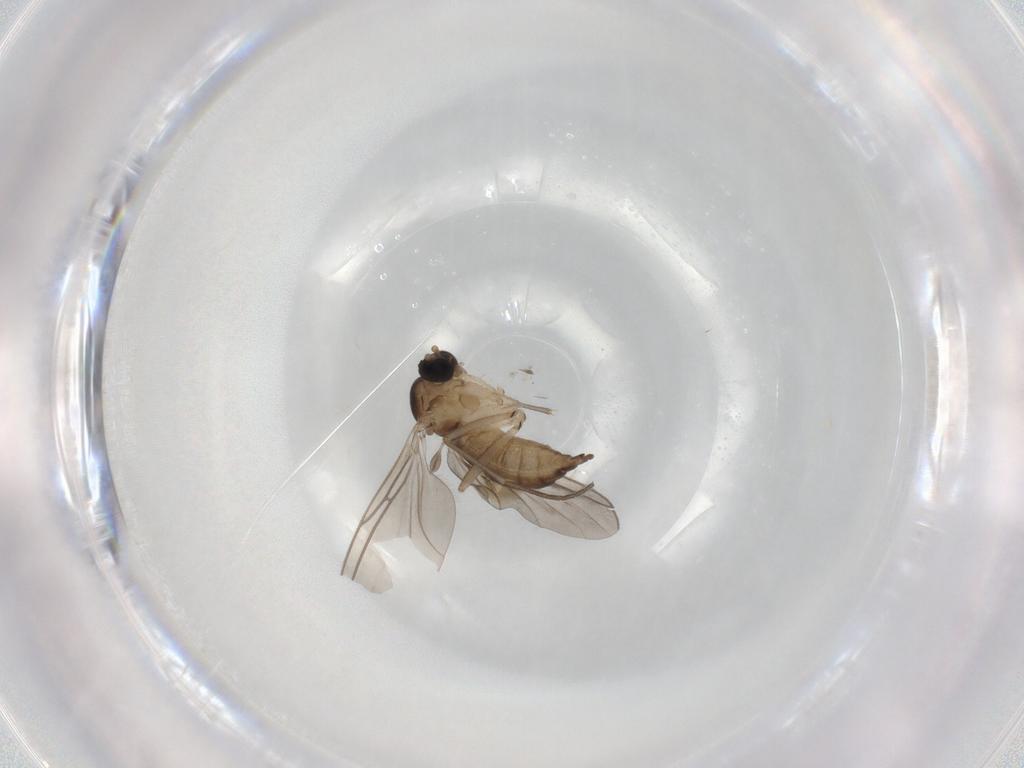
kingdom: Animalia
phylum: Arthropoda
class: Insecta
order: Diptera
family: Sciaridae
